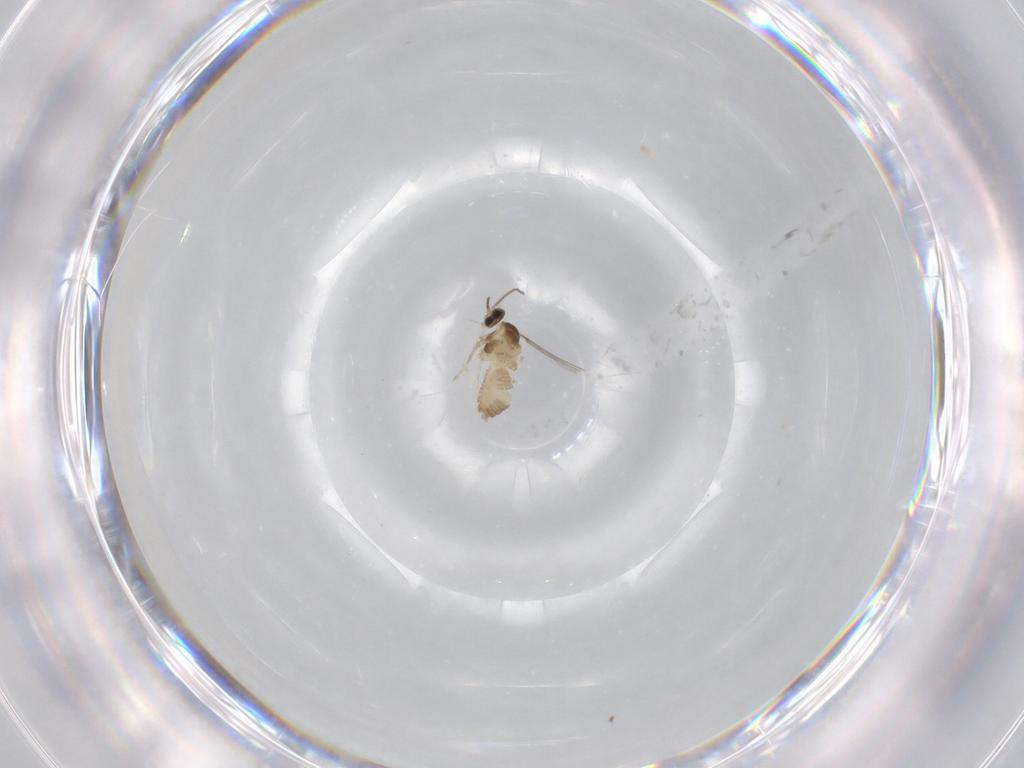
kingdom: Animalia
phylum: Arthropoda
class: Insecta
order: Diptera
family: Cecidomyiidae
